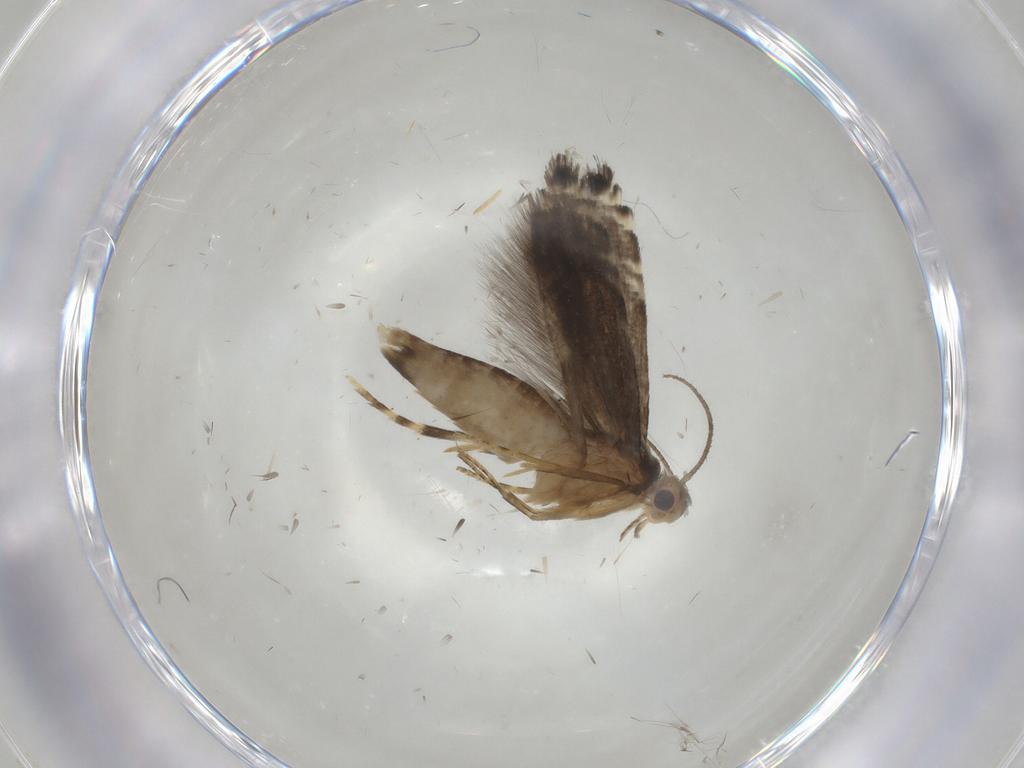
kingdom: Animalia
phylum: Arthropoda
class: Insecta
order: Lepidoptera
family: Glyphipterigidae
